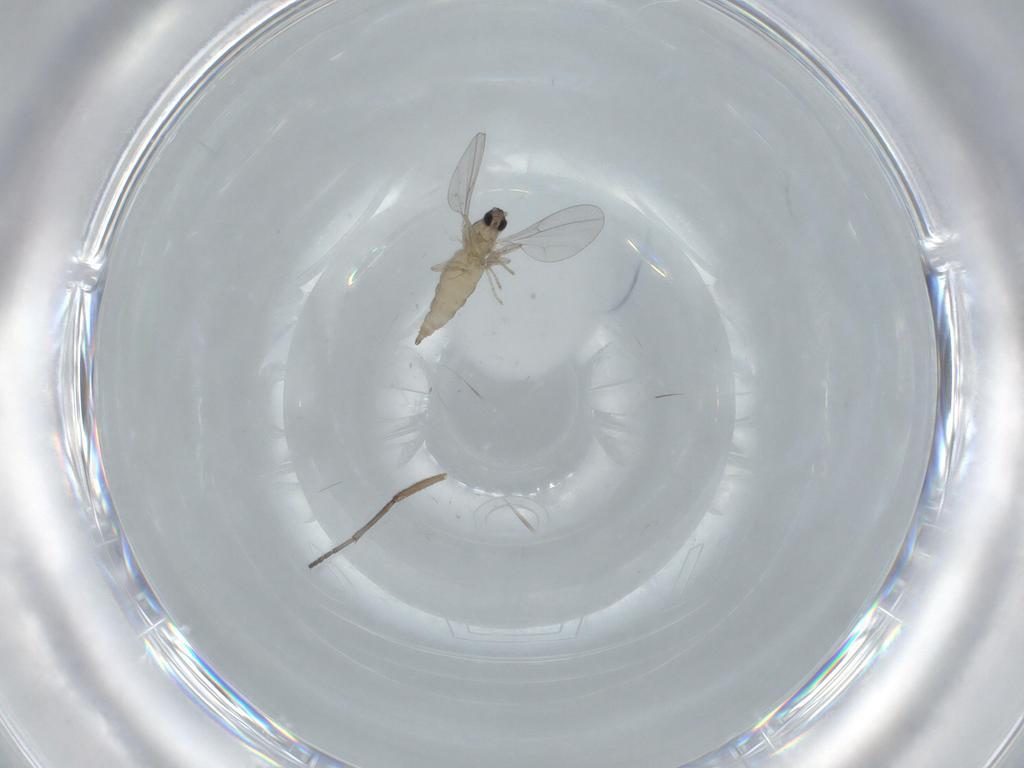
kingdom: Animalia
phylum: Arthropoda
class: Insecta
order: Diptera
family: Sciaridae
